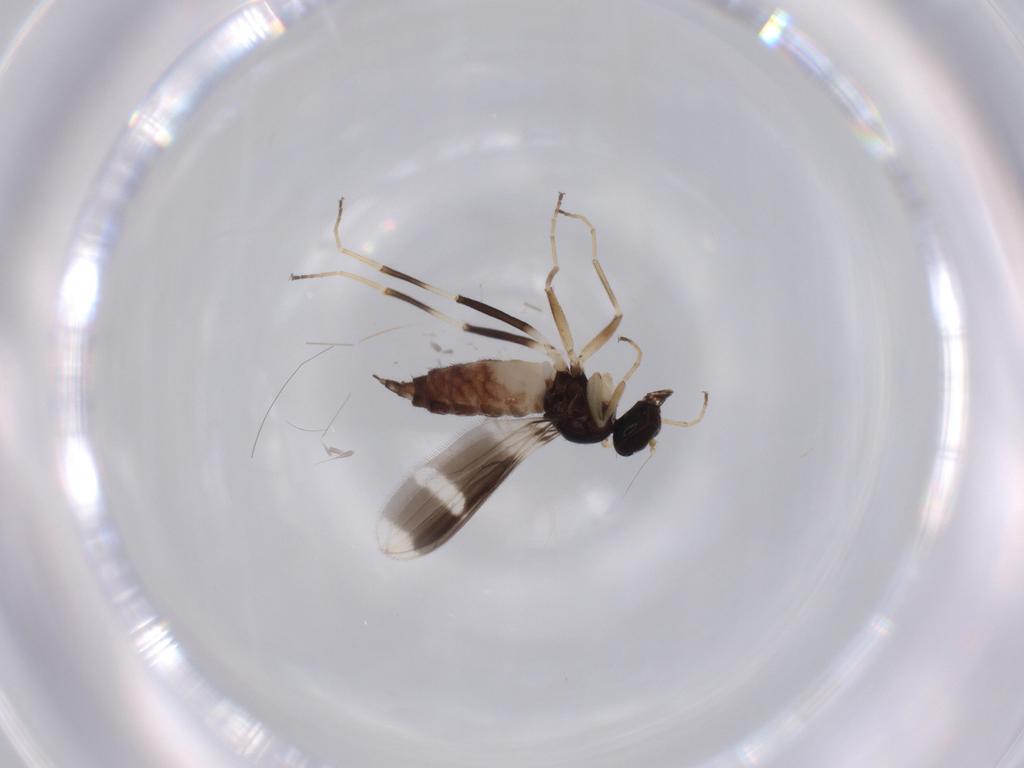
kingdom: Animalia
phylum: Arthropoda
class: Insecta
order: Diptera
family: Hybotidae
